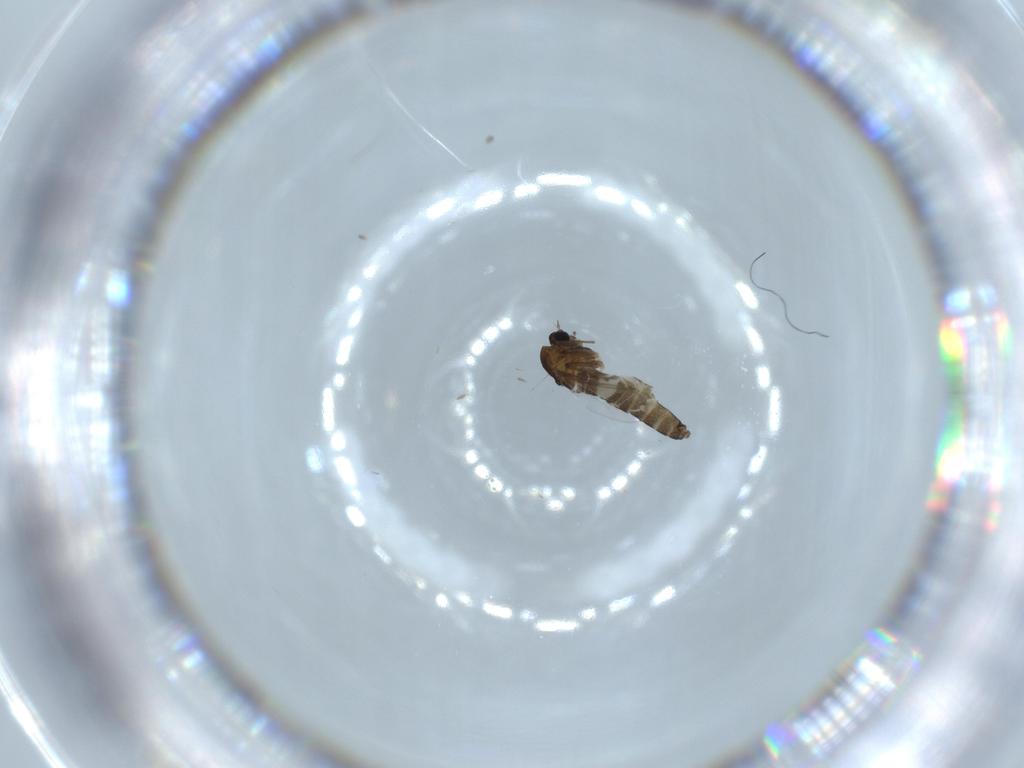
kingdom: Animalia
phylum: Arthropoda
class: Insecta
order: Diptera
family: Chironomidae
